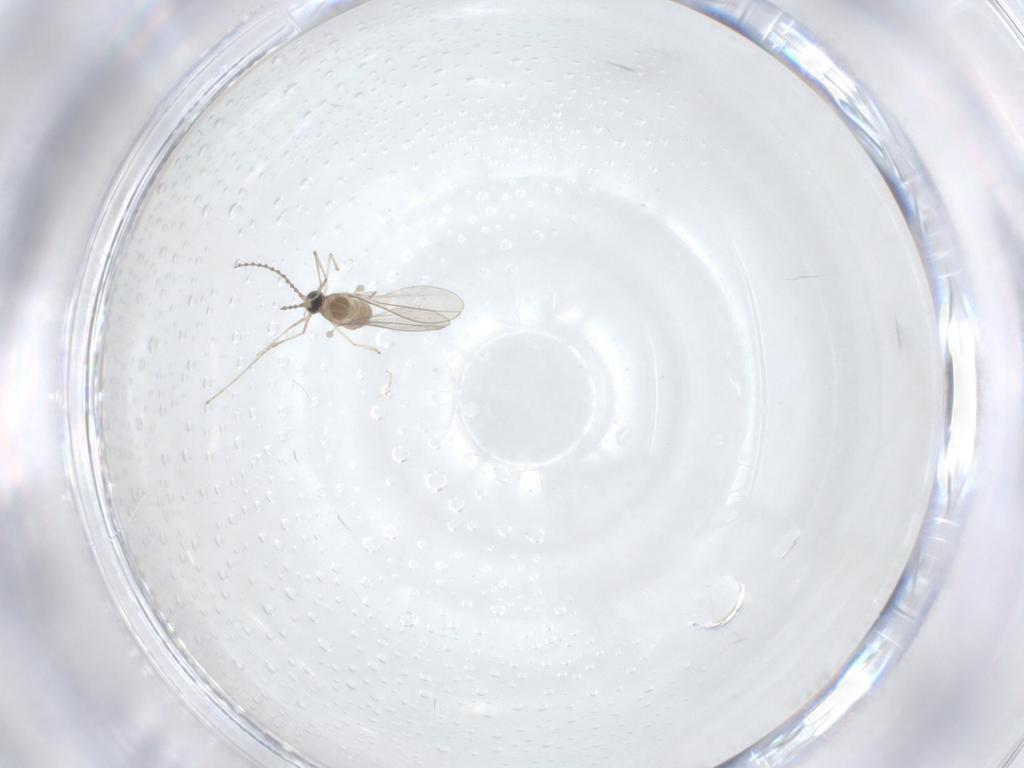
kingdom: Animalia
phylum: Arthropoda
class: Insecta
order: Diptera
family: Cecidomyiidae
